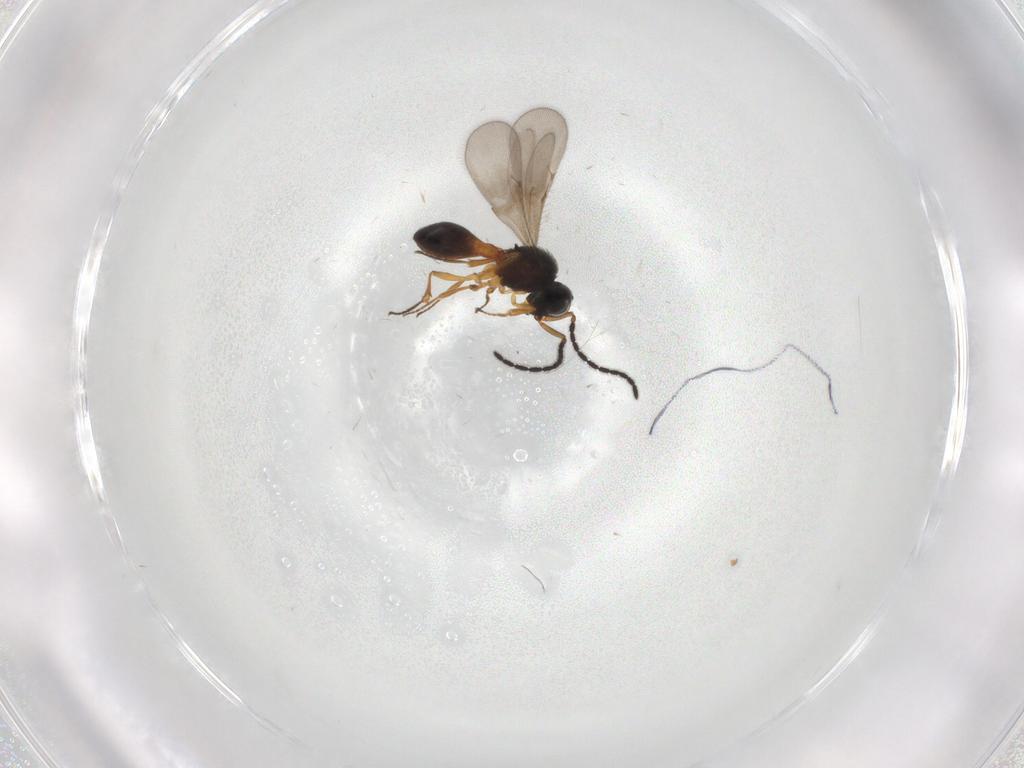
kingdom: Animalia
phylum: Arthropoda
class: Insecta
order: Hymenoptera
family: Scelionidae
